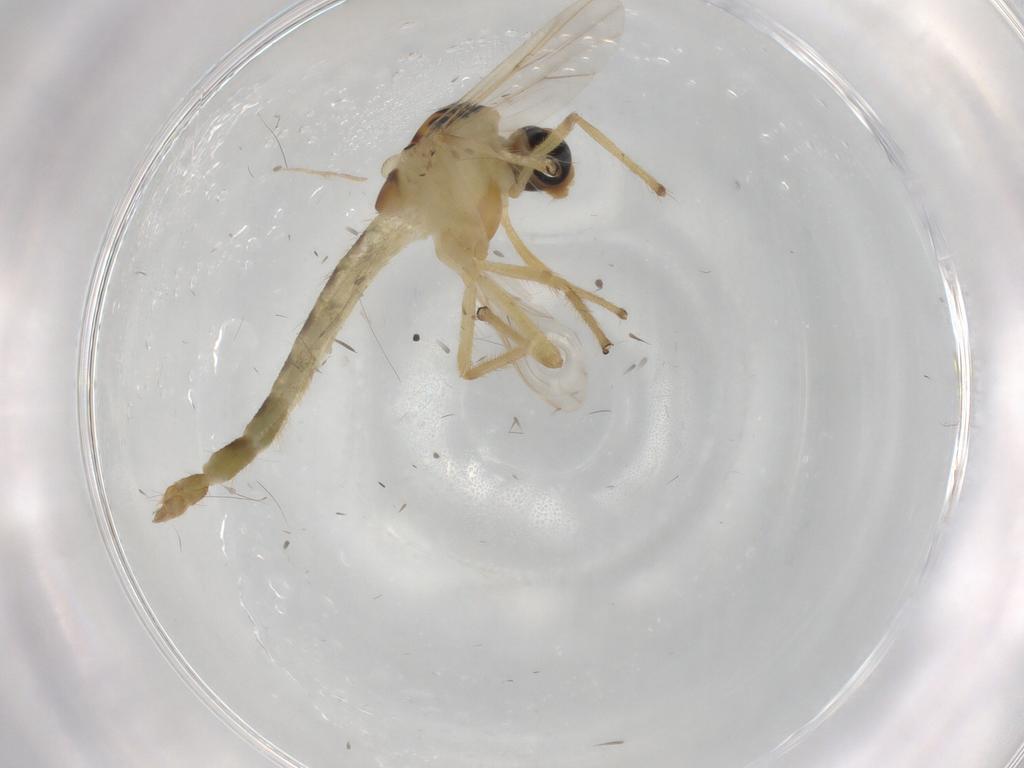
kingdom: Animalia
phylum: Arthropoda
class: Insecta
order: Diptera
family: Chironomidae
